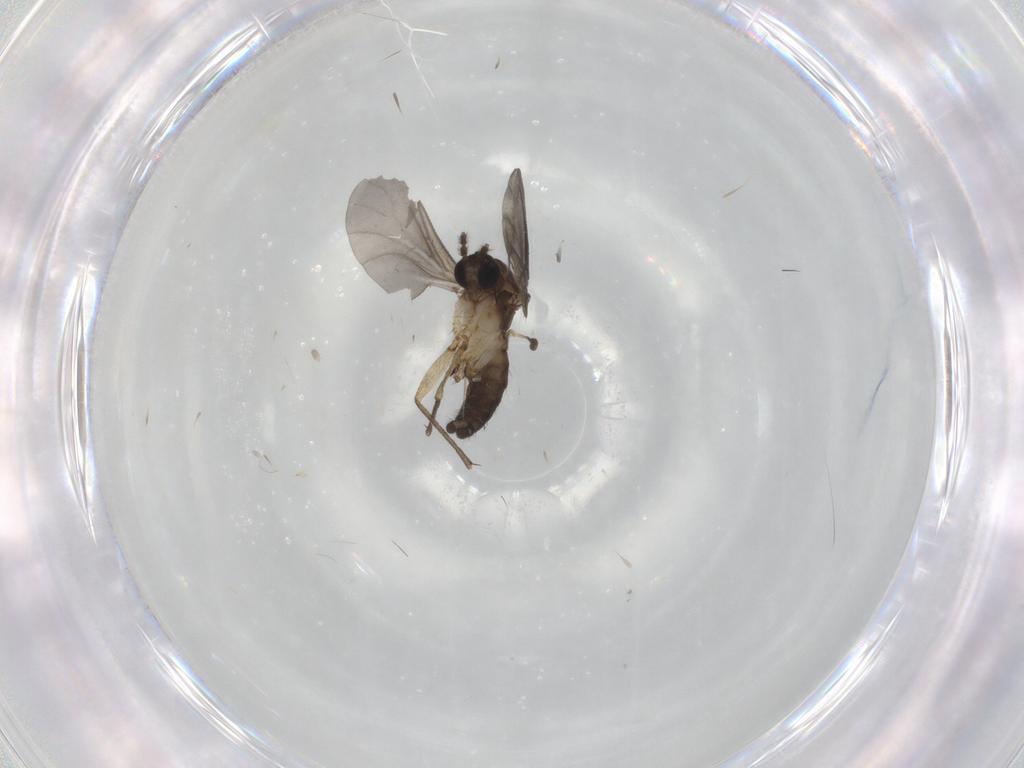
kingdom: Animalia
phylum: Arthropoda
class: Insecta
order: Diptera
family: Sciaridae
